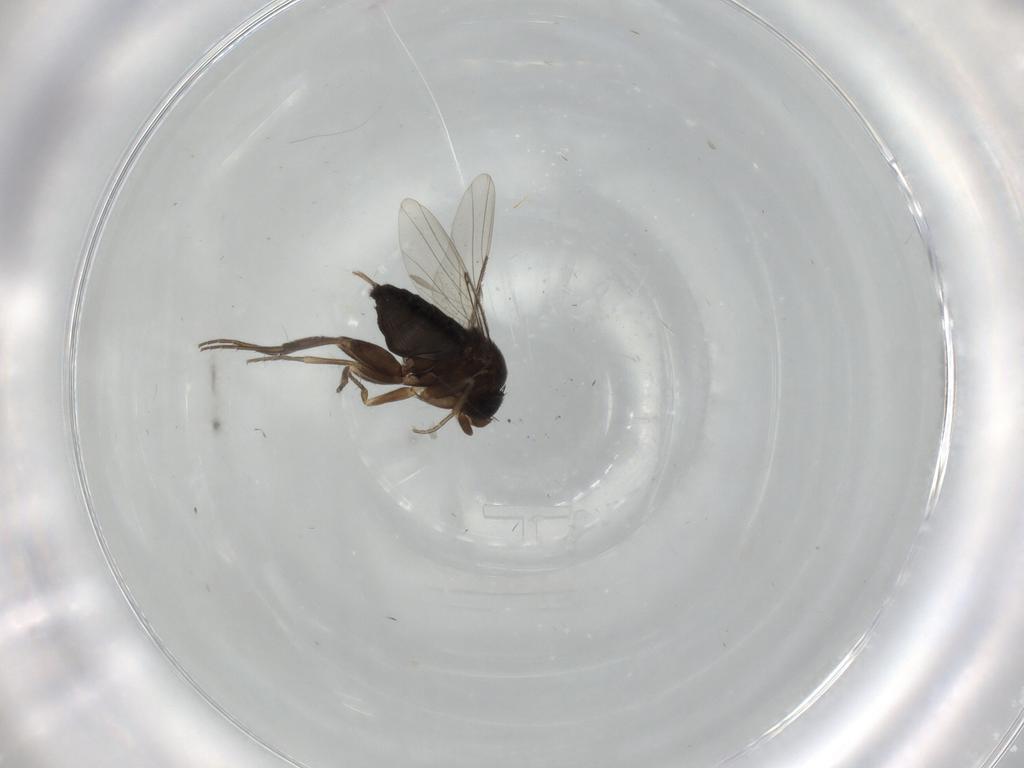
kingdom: Animalia
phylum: Arthropoda
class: Insecta
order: Diptera
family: Phoridae
